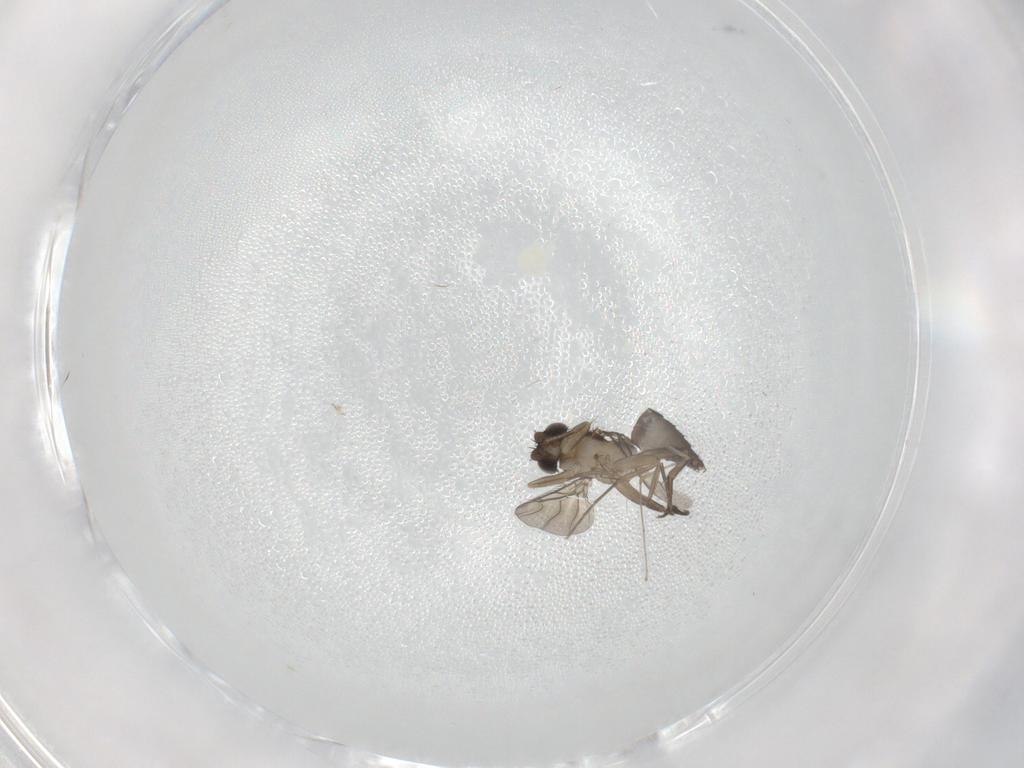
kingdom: Animalia
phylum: Arthropoda
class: Insecta
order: Diptera
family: Phoridae
